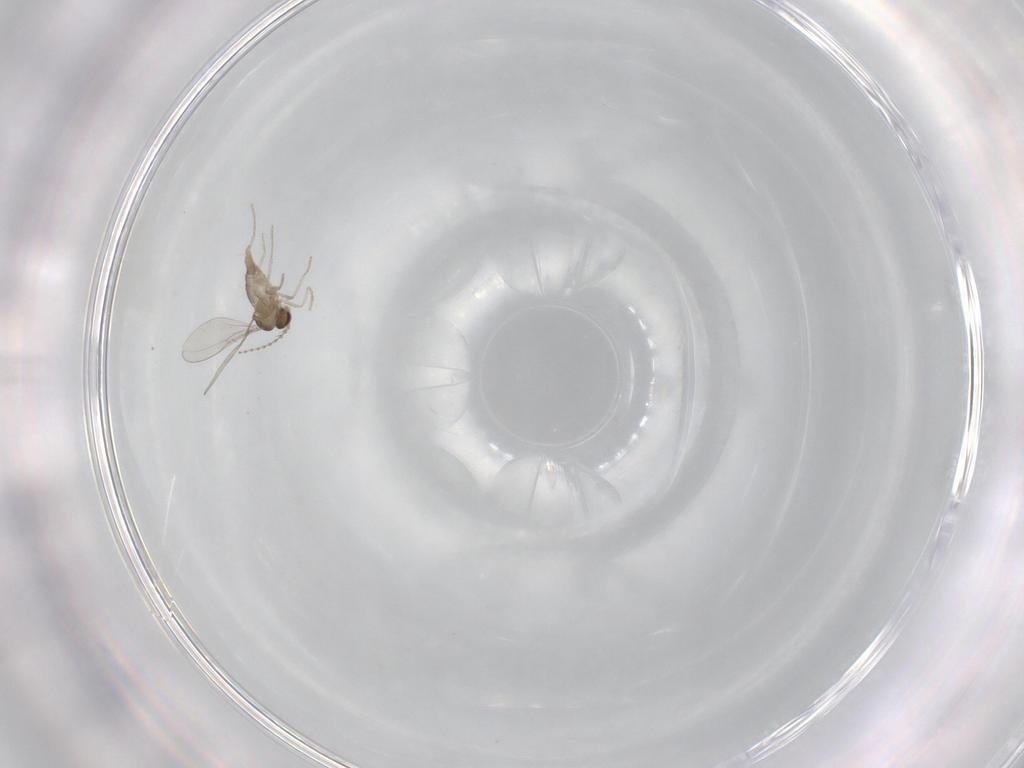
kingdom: Animalia
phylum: Arthropoda
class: Insecta
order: Diptera
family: Cecidomyiidae
